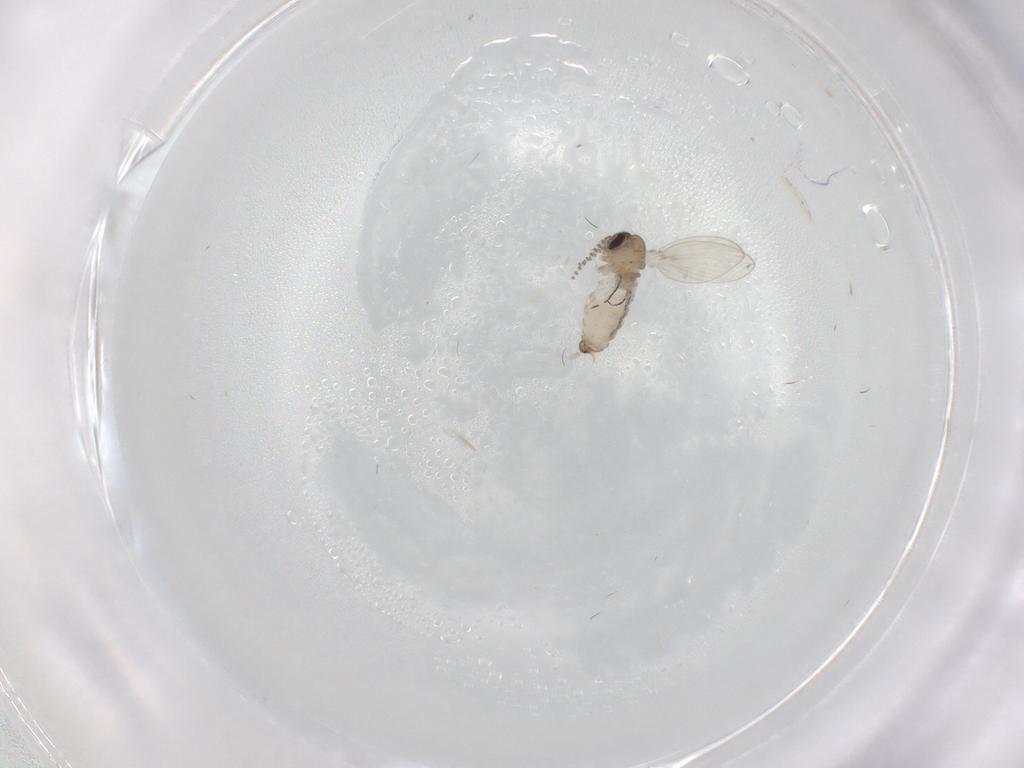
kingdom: Animalia
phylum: Arthropoda
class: Insecta
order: Diptera
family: Psychodidae
